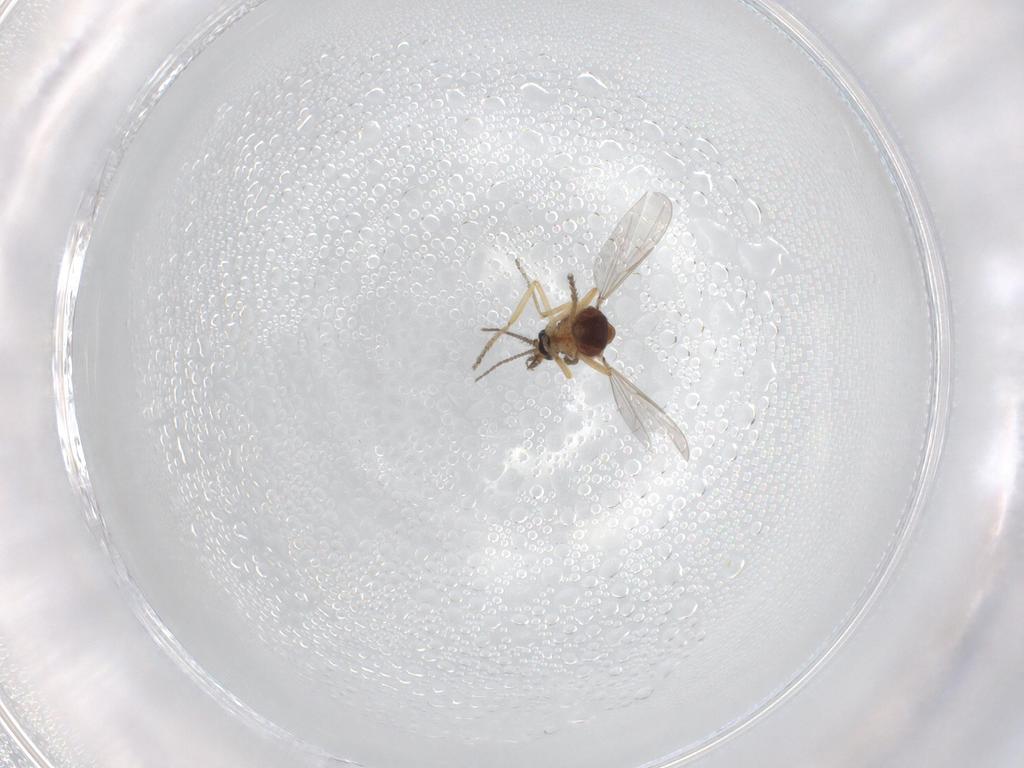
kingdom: Animalia
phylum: Arthropoda
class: Insecta
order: Diptera
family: Ceratopogonidae
